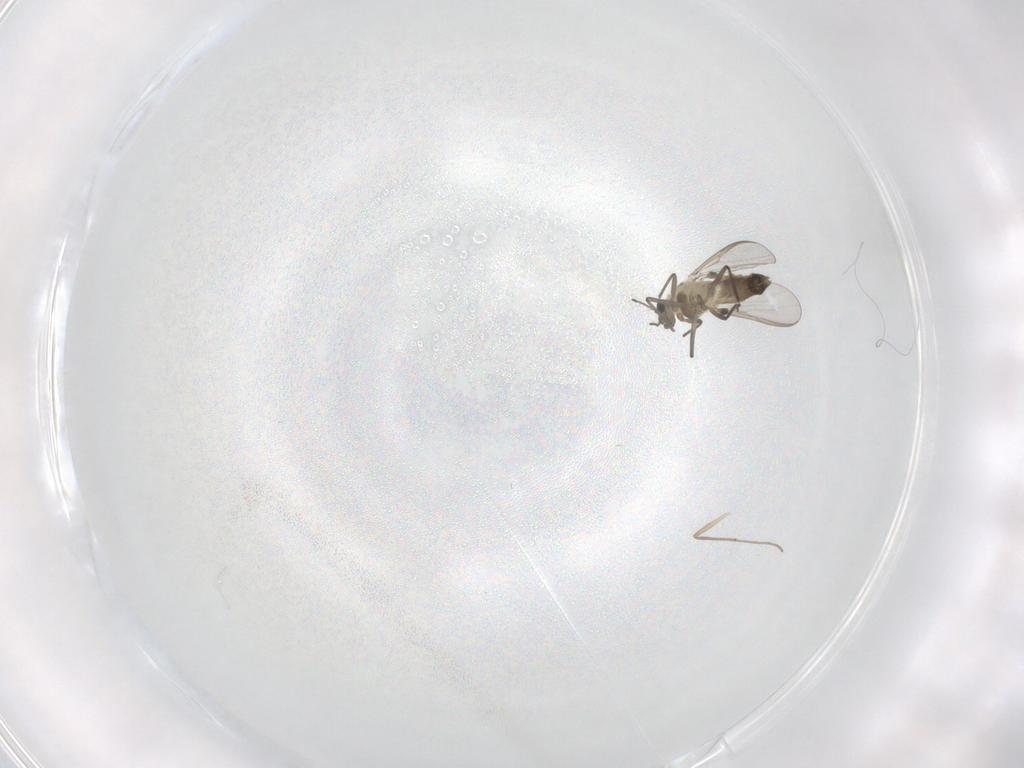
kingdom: Animalia
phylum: Arthropoda
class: Insecta
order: Diptera
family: Chironomidae
